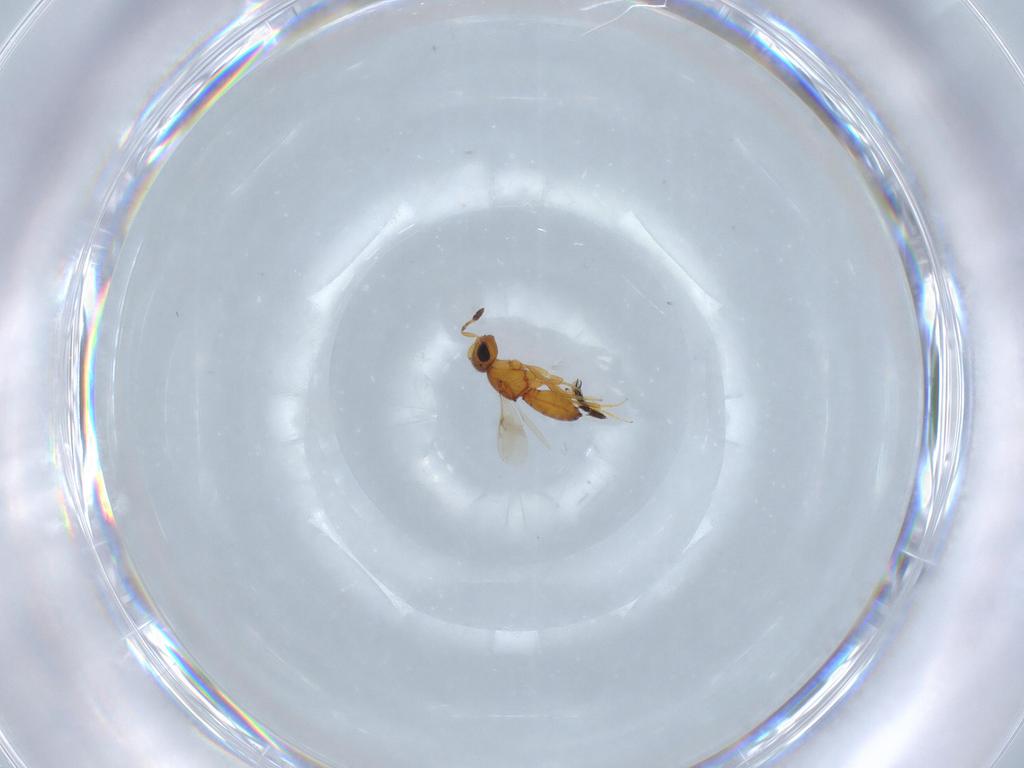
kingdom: Animalia
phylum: Arthropoda
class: Insecta
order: Hymenoptera
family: Scelionidae
